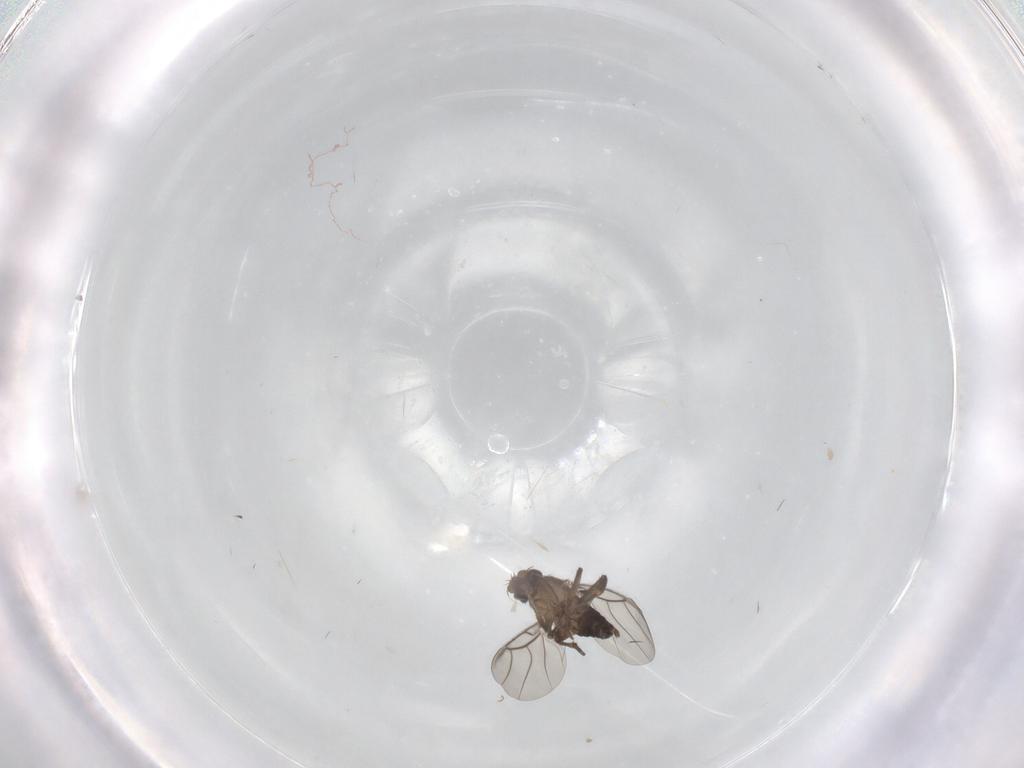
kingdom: Animalia
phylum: Arthropoda
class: Insecta
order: Diptera
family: Phoridae
